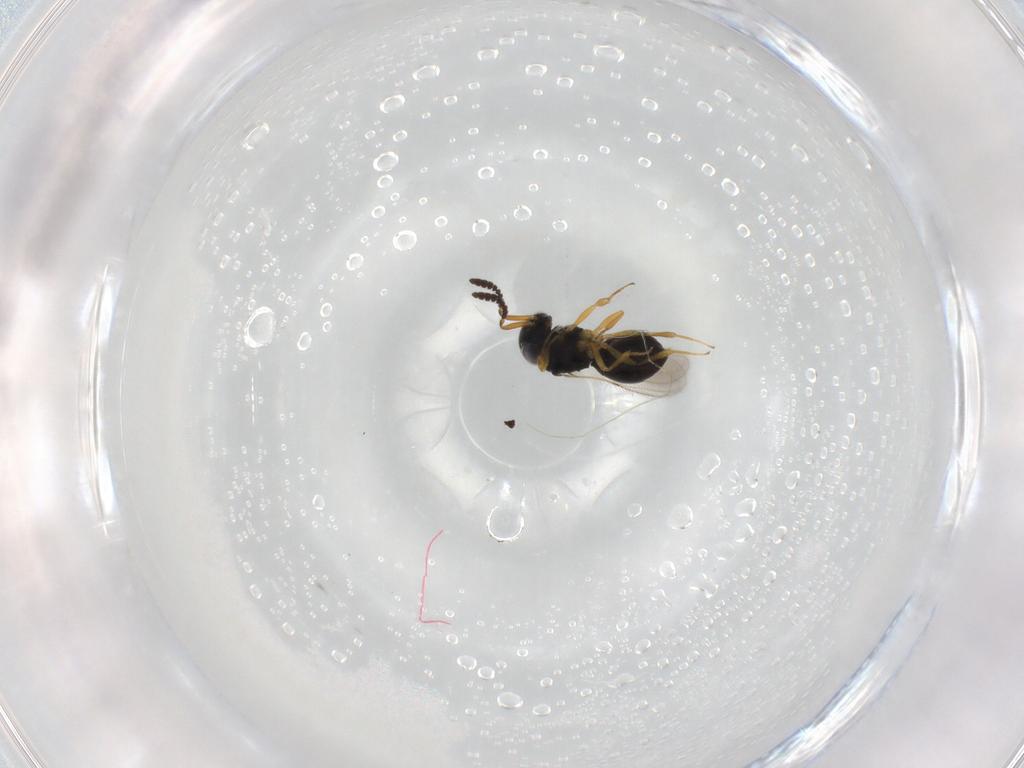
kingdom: Animalia
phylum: Arthropoda
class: Insecta
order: Hymenoptera
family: Scelionidae
